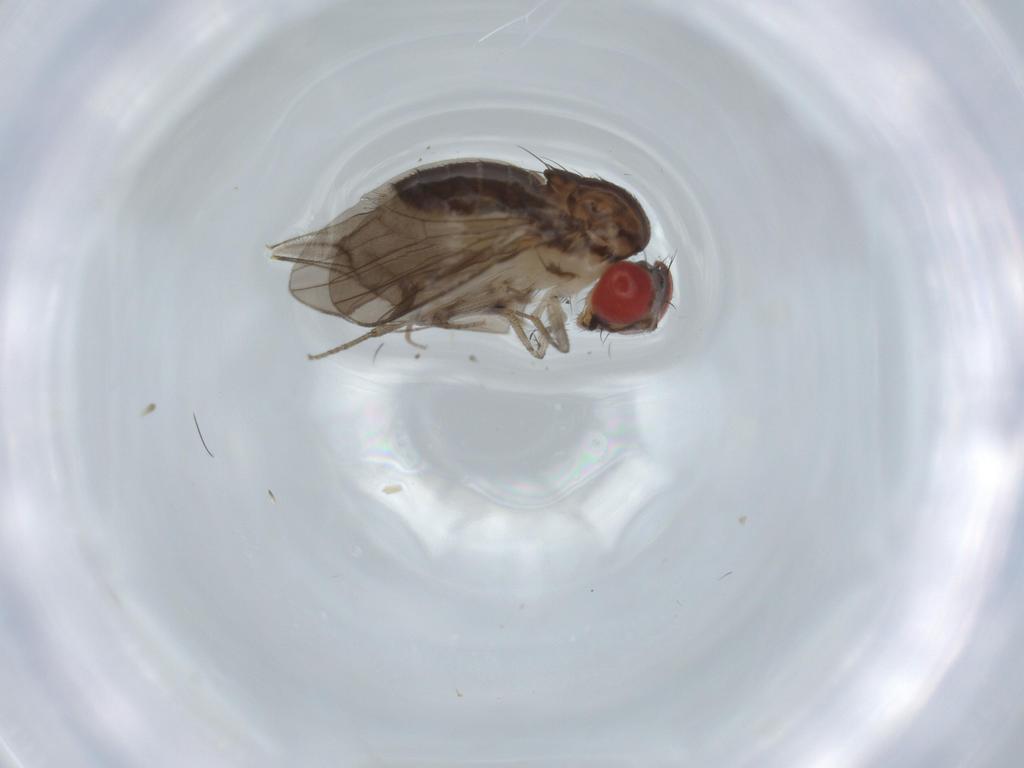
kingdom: Animalia
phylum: Arthropoda
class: Insecta
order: Diptera
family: Drosophilidae
